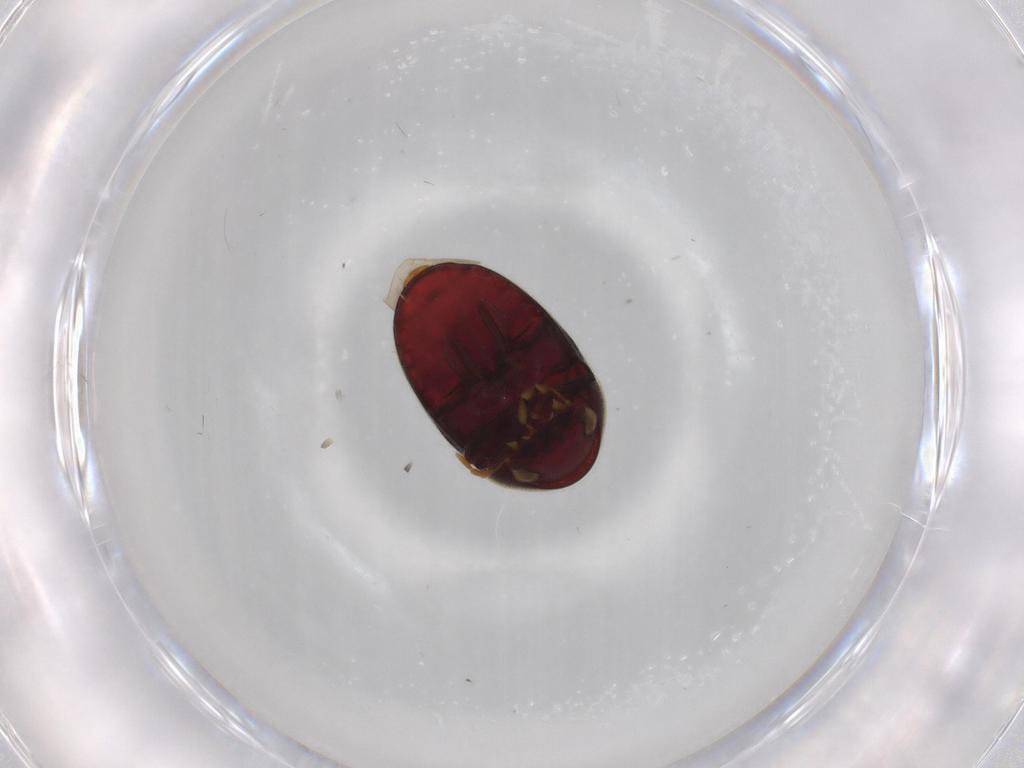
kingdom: Animalia
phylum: Arthropoda
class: Insecta
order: Coleoptera
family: Ptinidae
